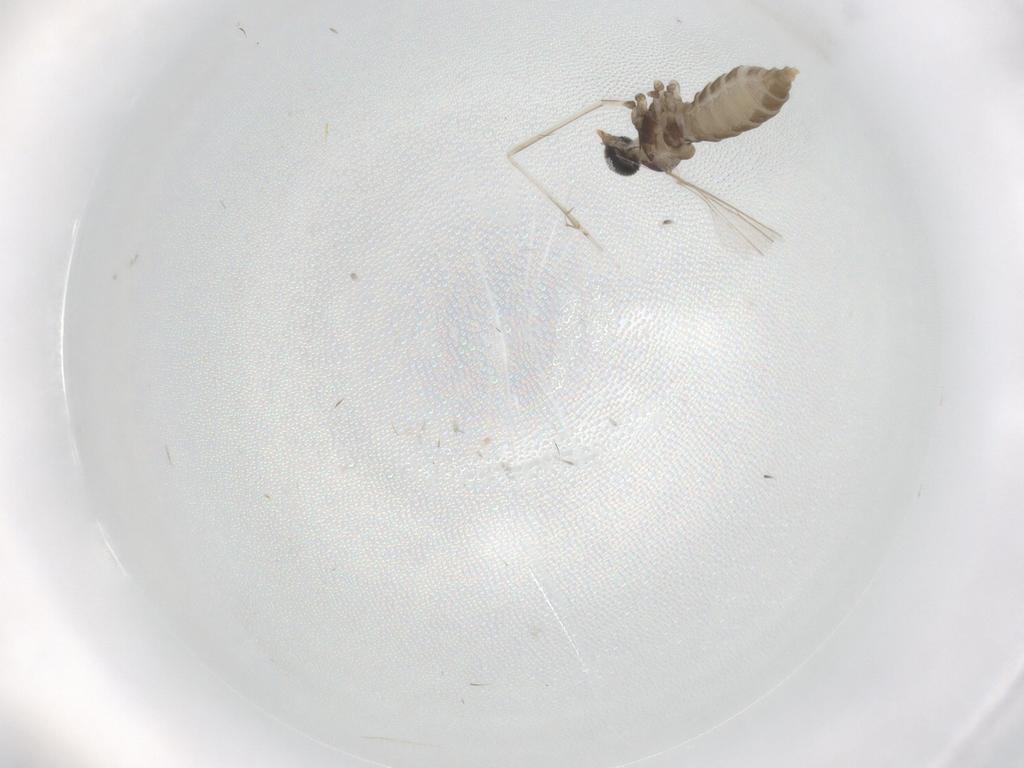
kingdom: Animalia
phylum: Arthropoda
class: Insecta
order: Diptera
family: Cecidomyiidae
